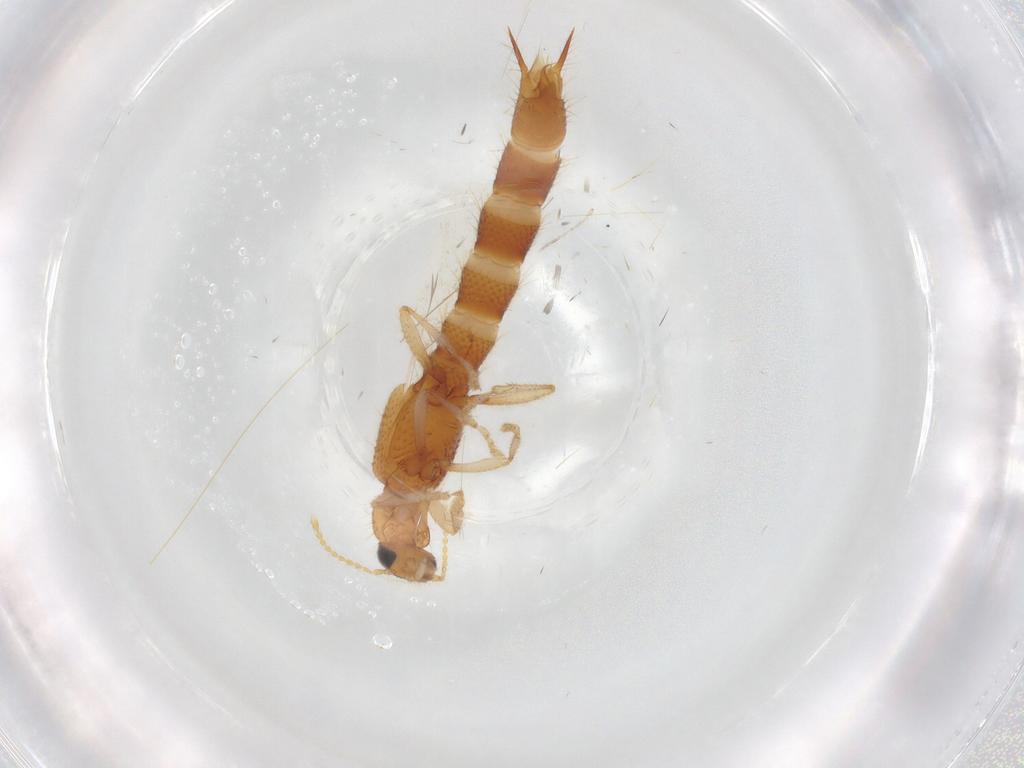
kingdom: Animalia
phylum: Arthropoda
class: Insecta
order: Coleoptera
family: Staphylinidae
